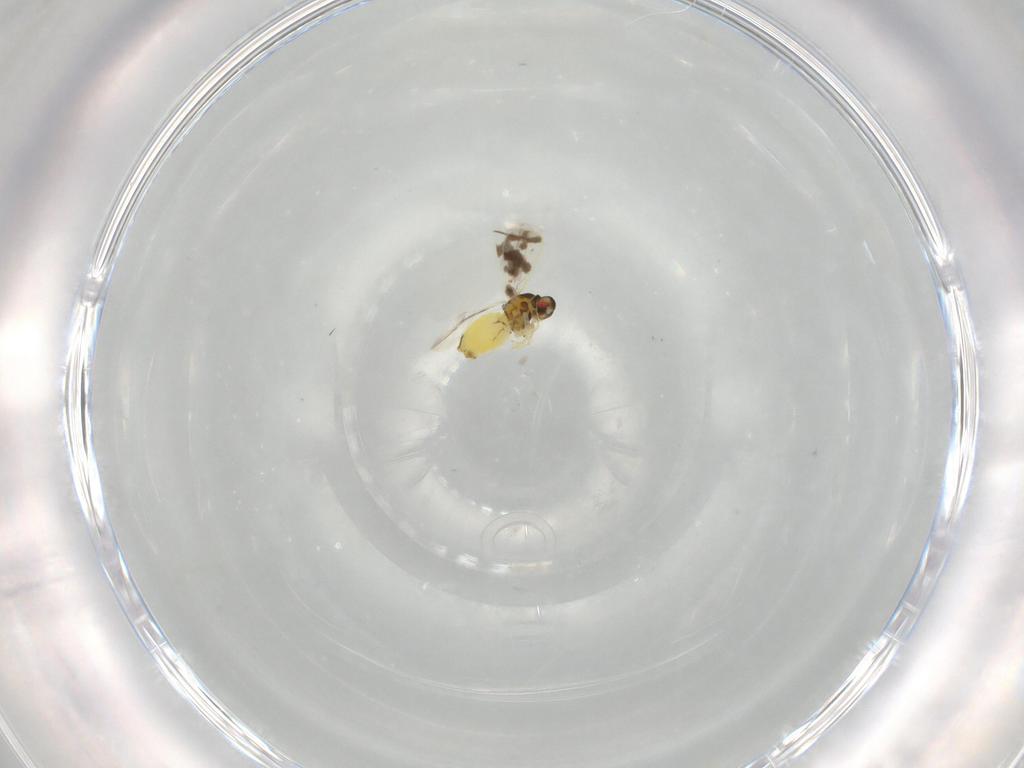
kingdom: Animalia
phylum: Arthropoda
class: Insecta
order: Hemiptera
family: Aleyrodidae
